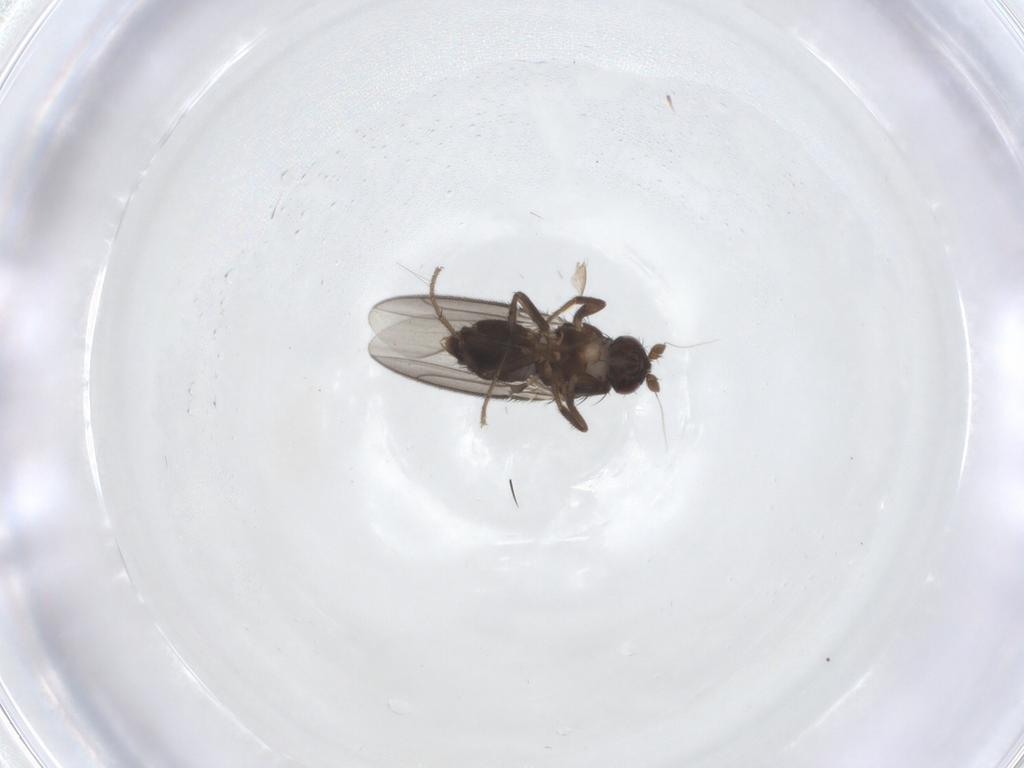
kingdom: Animalia
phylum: Arthropoda
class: Insecta
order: Diptera
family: Sphaeroceridae
